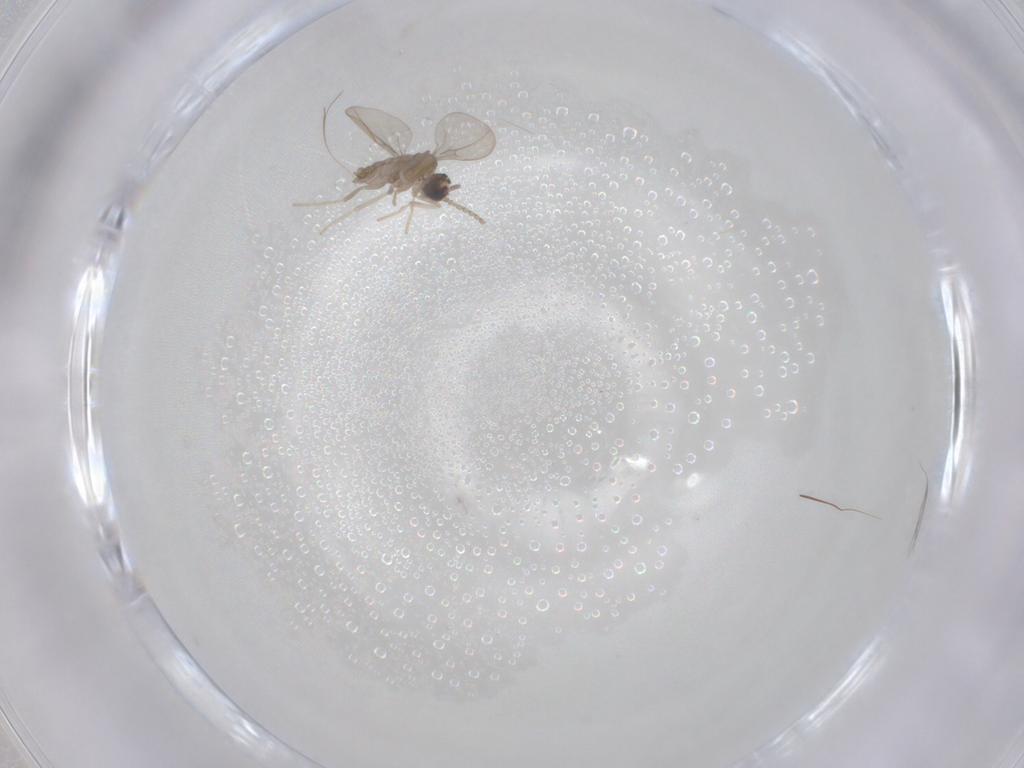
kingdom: Animalia
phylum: Arthropoda
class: Insecta
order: Diptera
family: Cecidomyiidae
